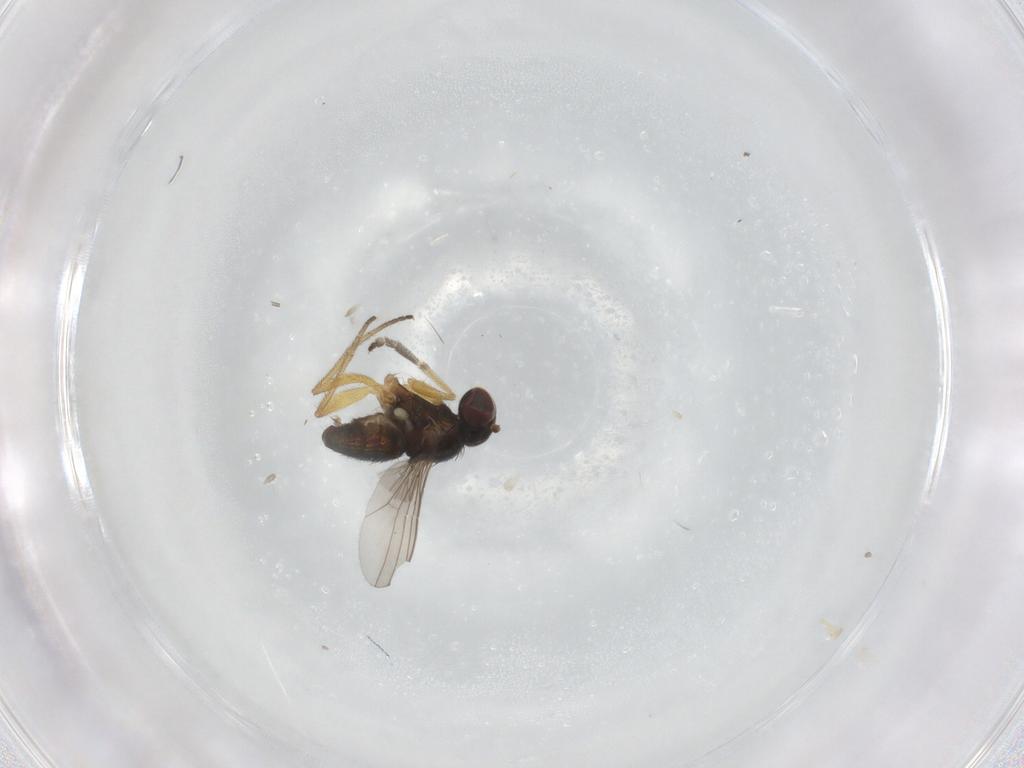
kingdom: Animalia
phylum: Arthropoda
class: Insecta
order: Diptera
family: Dolichopodidae
